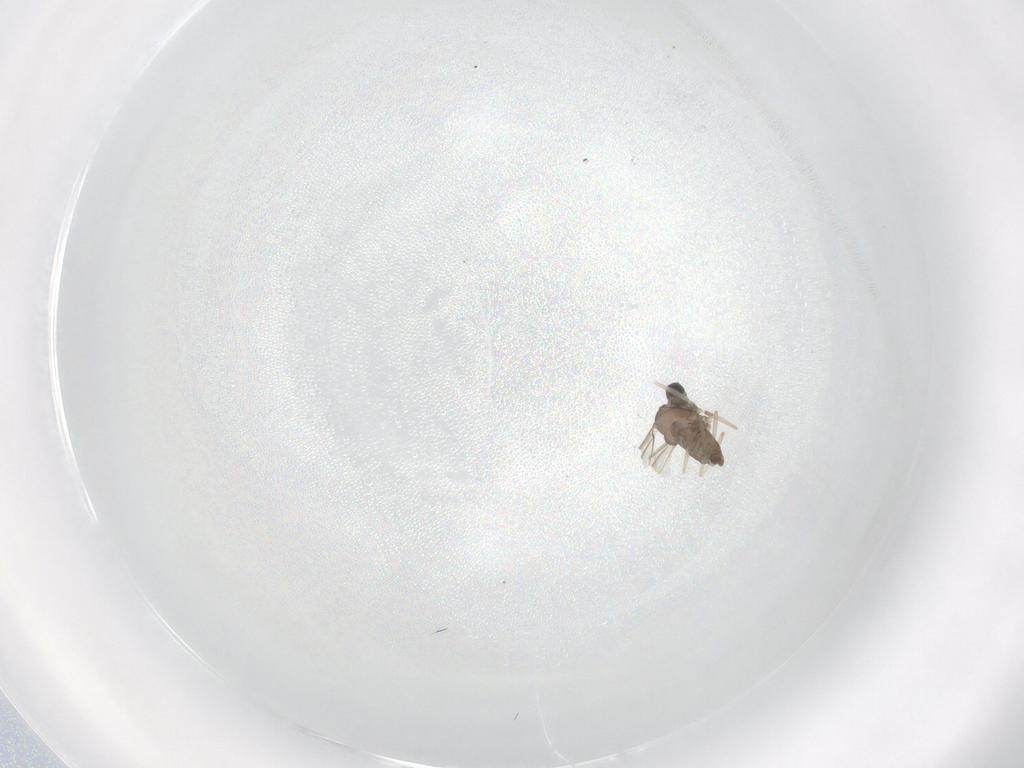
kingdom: Animalia
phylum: Arthropoda
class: Insecta
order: Diptera
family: Cecidomyiidae
